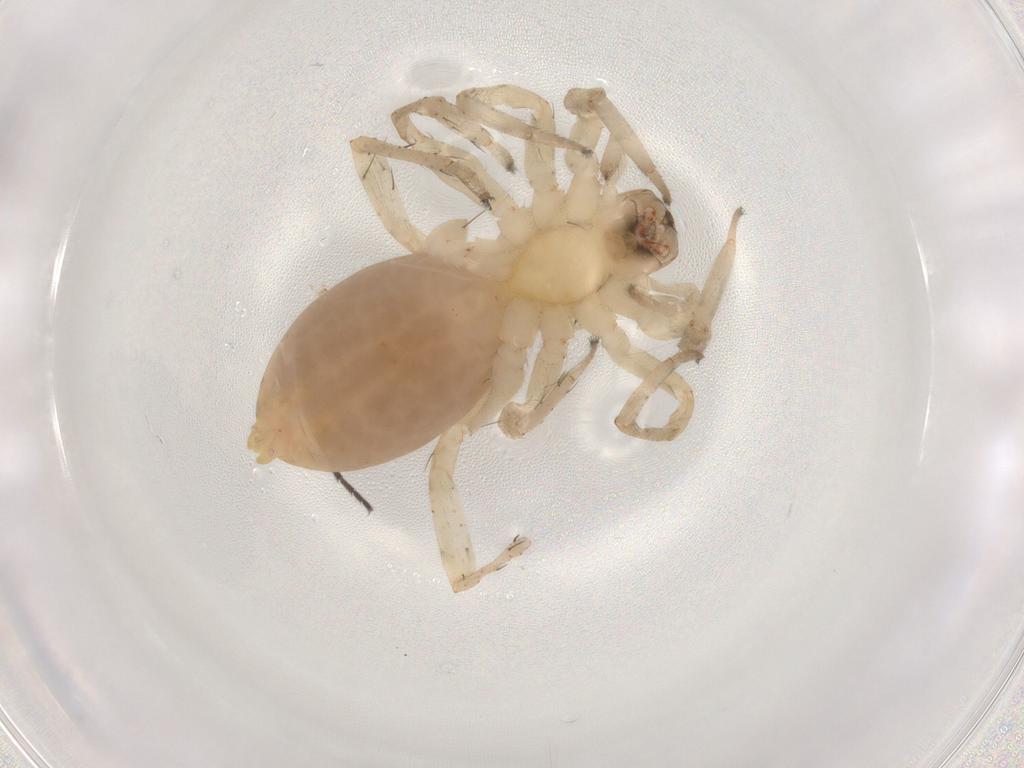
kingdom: Animalia
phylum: Arthropoda
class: Arachnida
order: Araneae
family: Anyphaenidae
